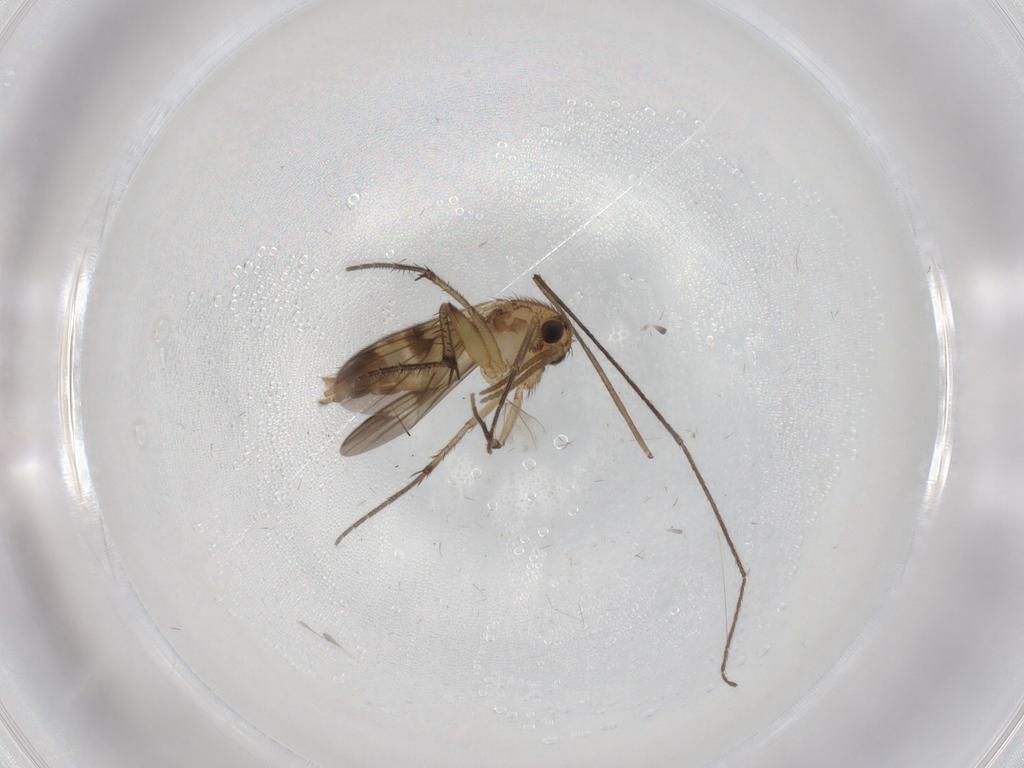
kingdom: Animalia
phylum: Arthropoda
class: Insecta
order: Diptera
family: Mycetophilidae
